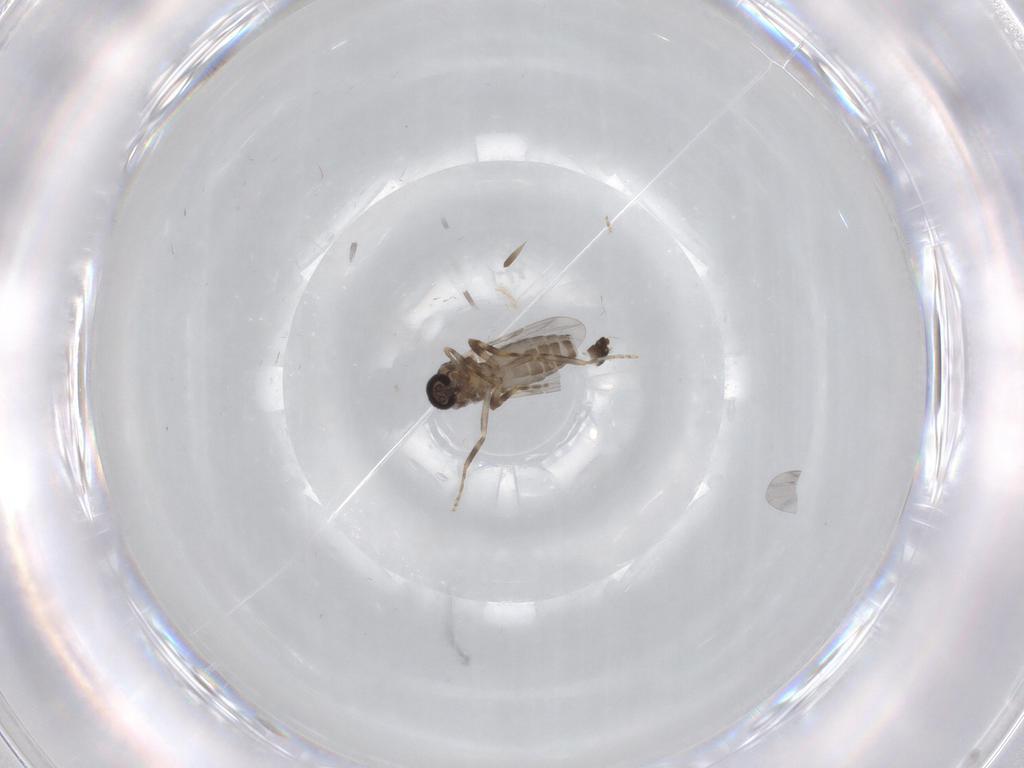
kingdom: Animalia
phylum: Arthropoda
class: Insecta
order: Diptera
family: Ceratopogonidae
